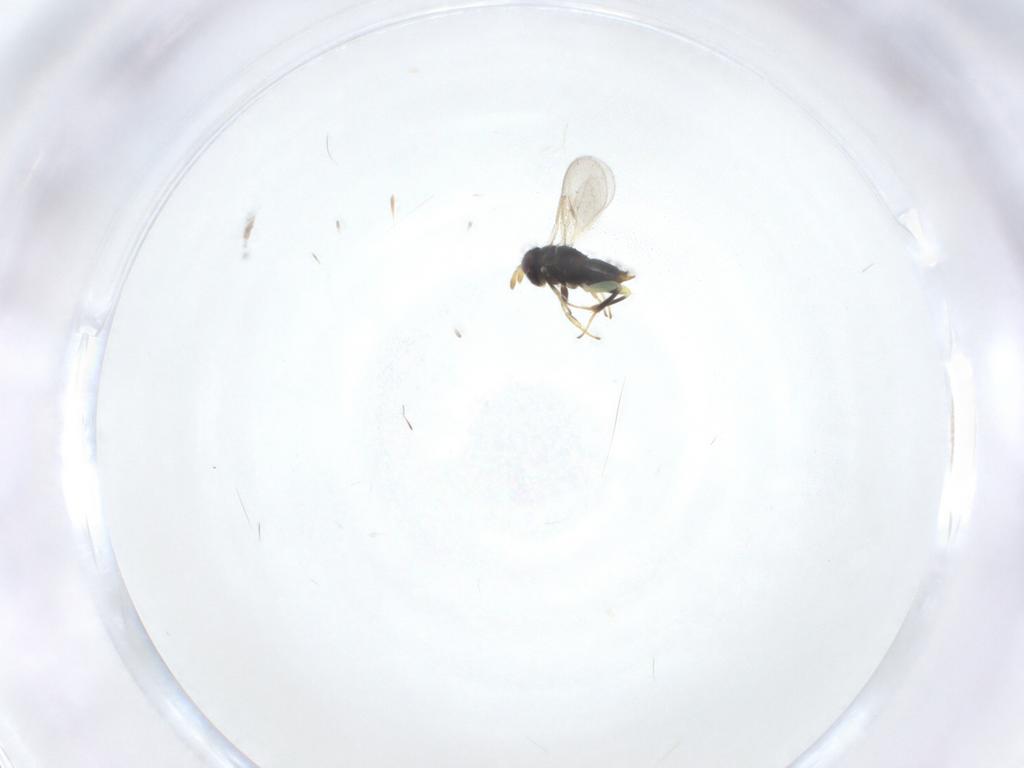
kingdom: Animalia
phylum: Arthropoda
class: Insecta
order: Hymenoptera
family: Aphelinidae
